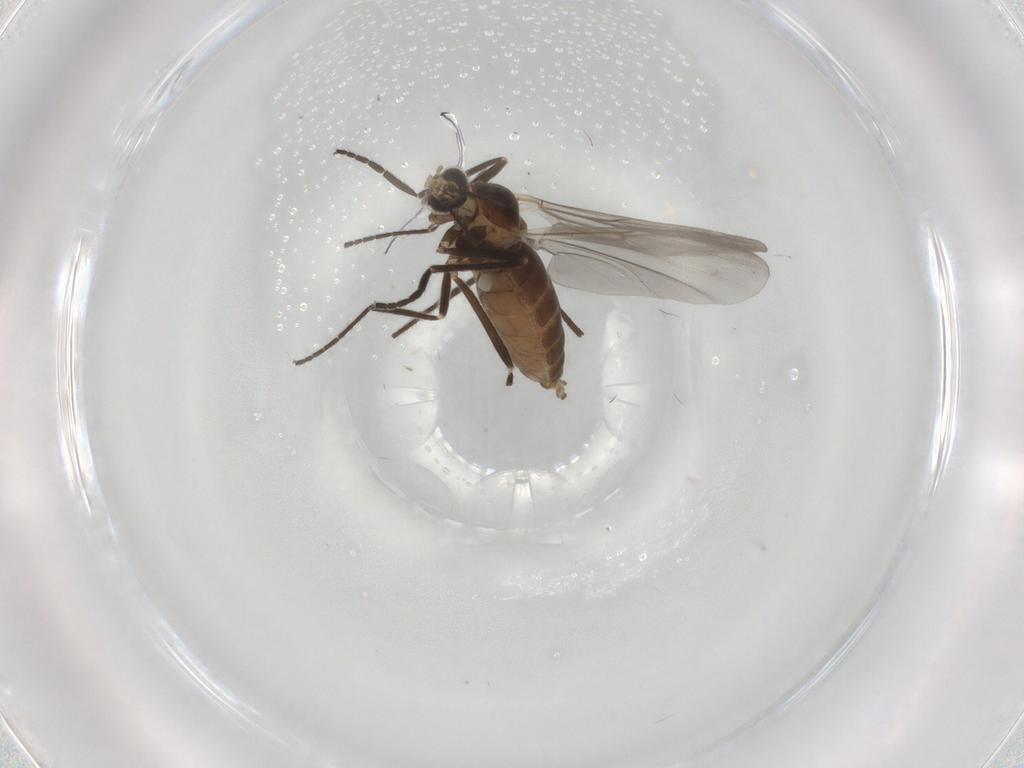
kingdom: Animalia
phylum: Arthropoda
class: Insecta
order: Diptera
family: Cecidomyiidae
